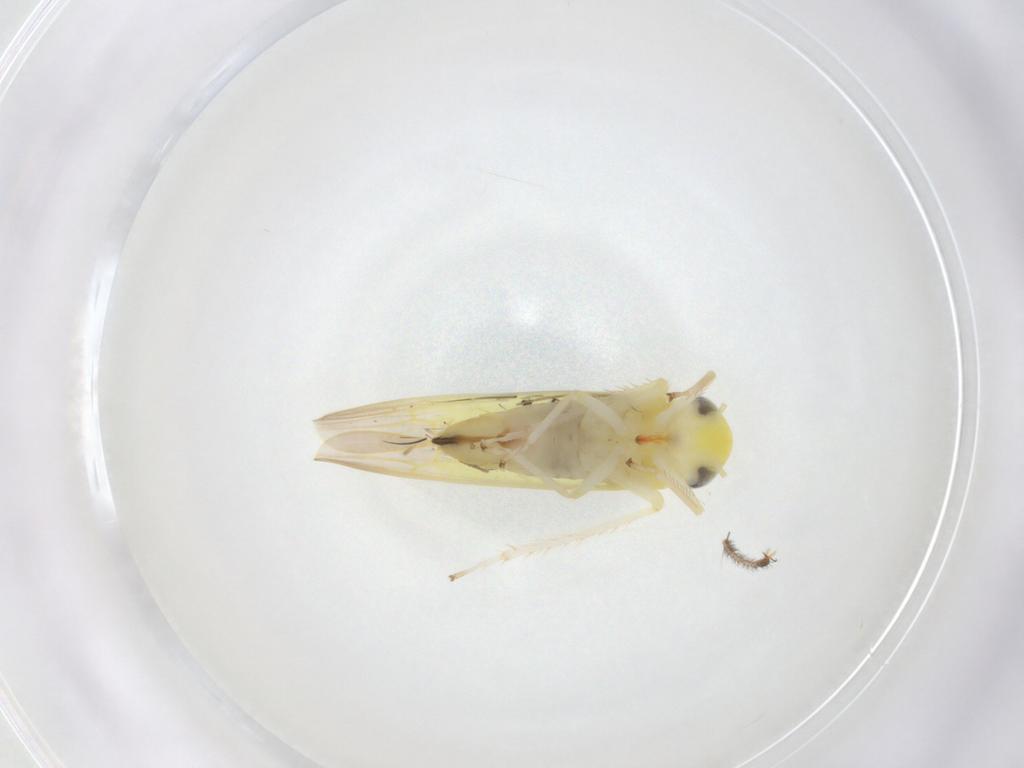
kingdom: Animalia
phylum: Arthropoda
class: Insecta
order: Hemiptera
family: Cicadellidae
